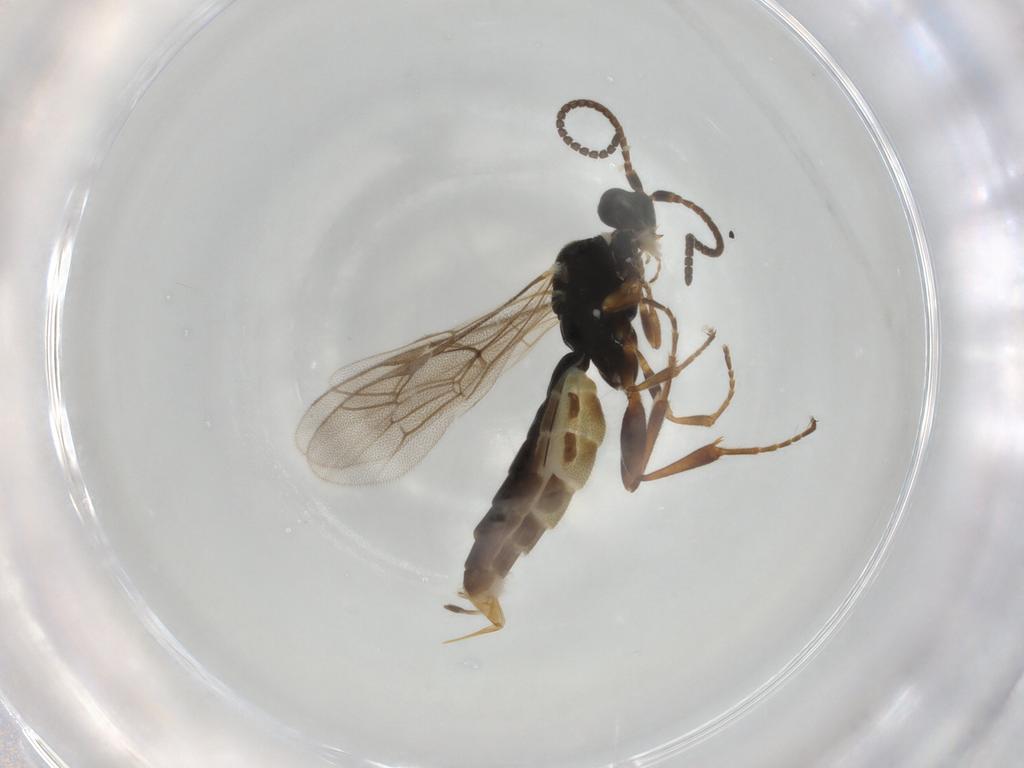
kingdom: Animalia
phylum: Arthropoda
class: Insecta
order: Hymenoptera
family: Ichneumonidae
